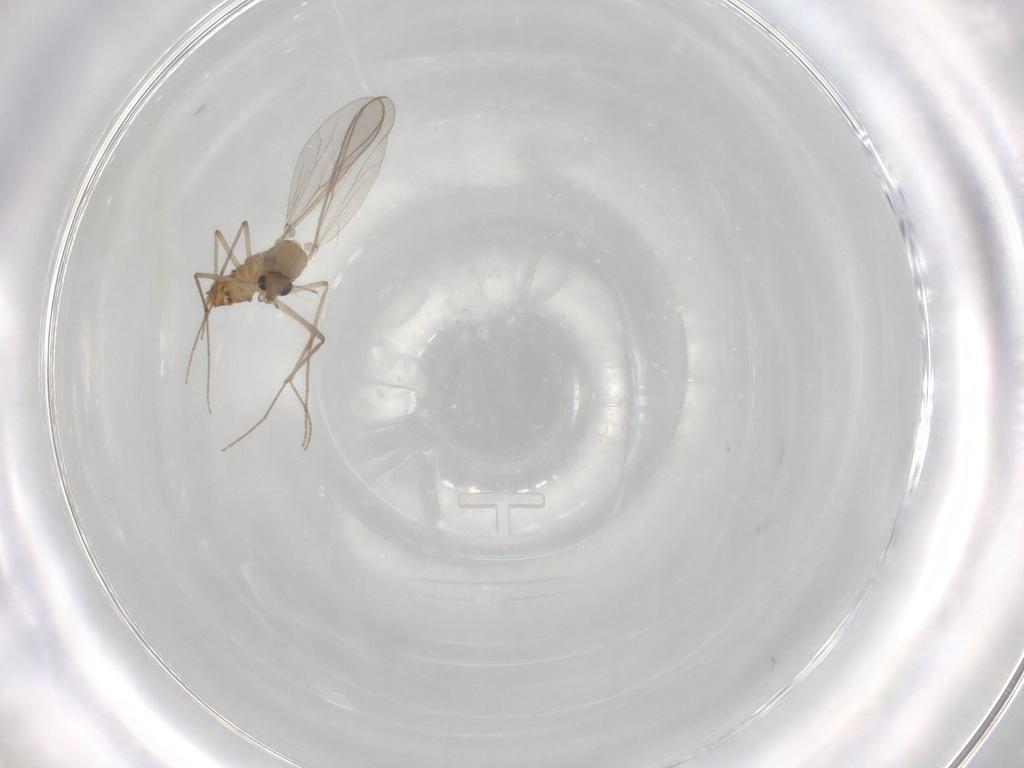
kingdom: Animalia
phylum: Arthropoda
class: Insecta
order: Diptera
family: Chironomidae
